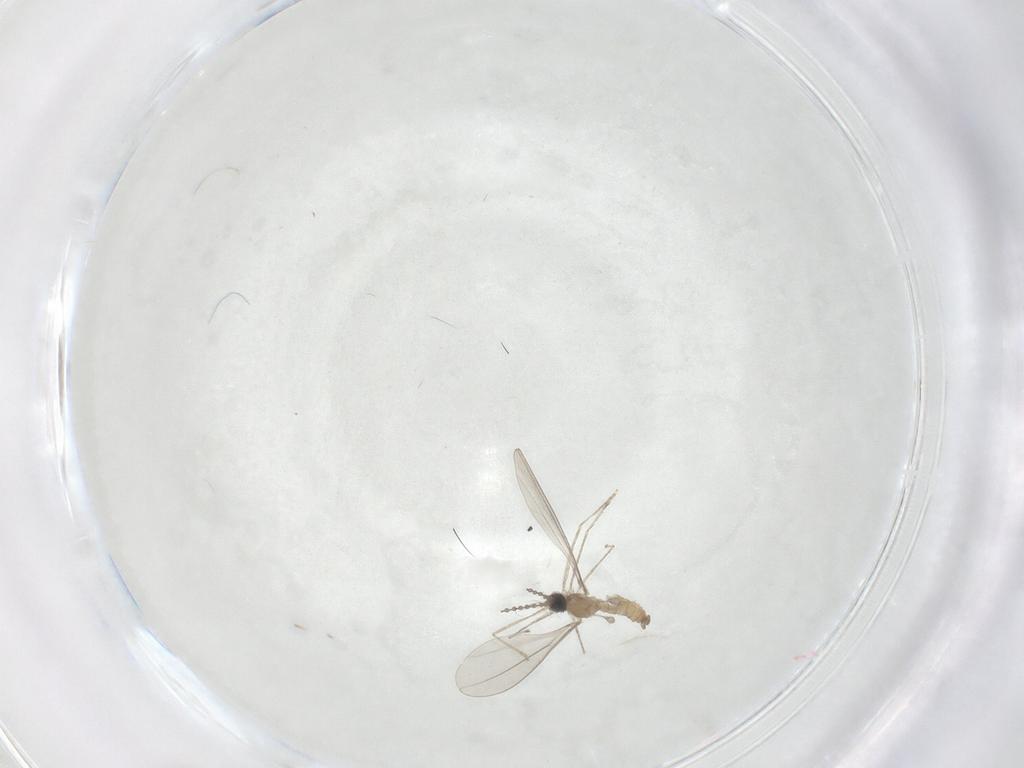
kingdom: Animalia
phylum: Arthropoda
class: Insecta
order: Diptera
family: Cecidomyiidae
